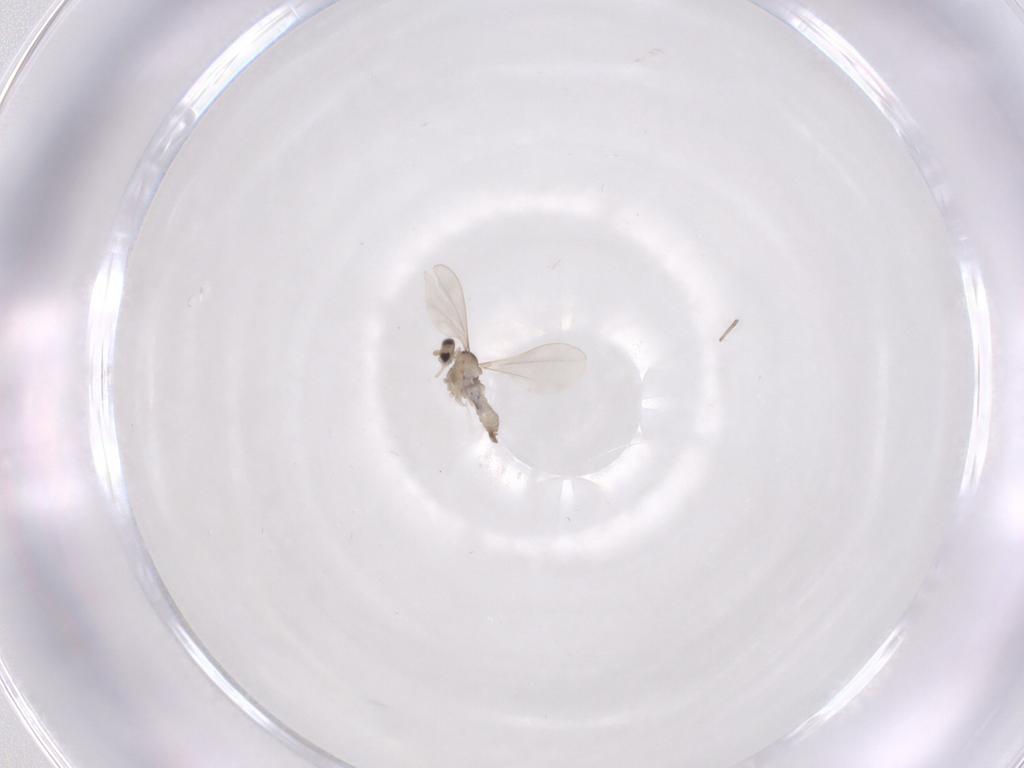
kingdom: Animalia
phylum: Arthropoda
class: Insecta
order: Diptera
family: Cecidomyiidae
